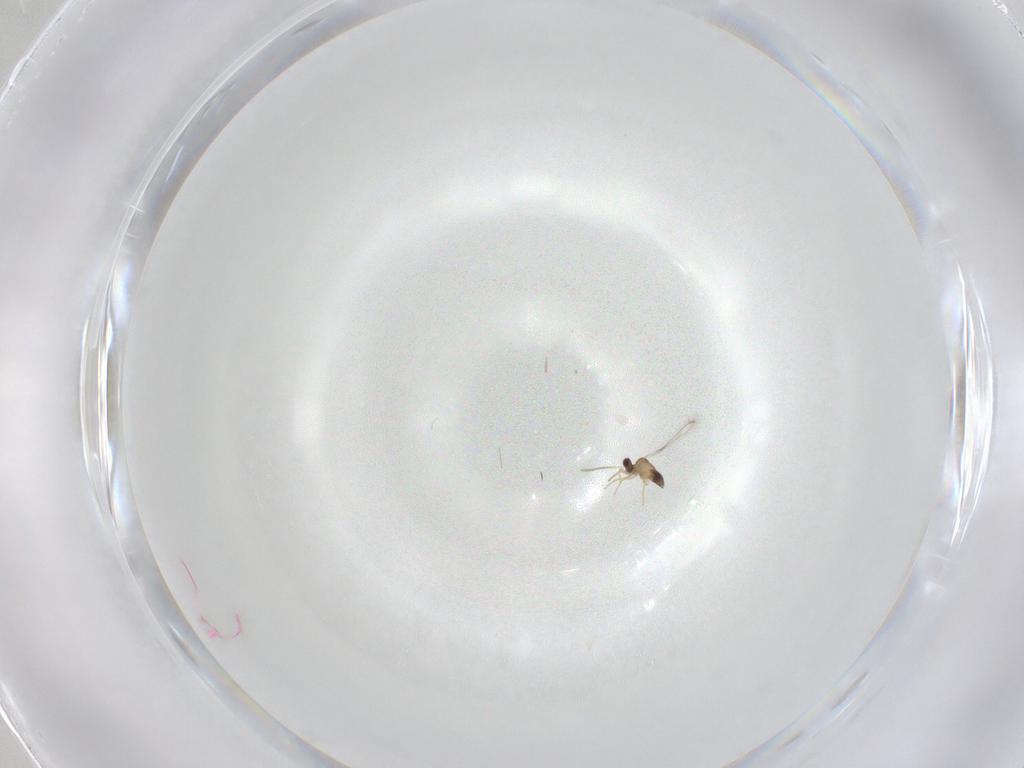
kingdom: Animalia
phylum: Arthropoda
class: Insecta
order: Hymenoptera
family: Mymaridae
